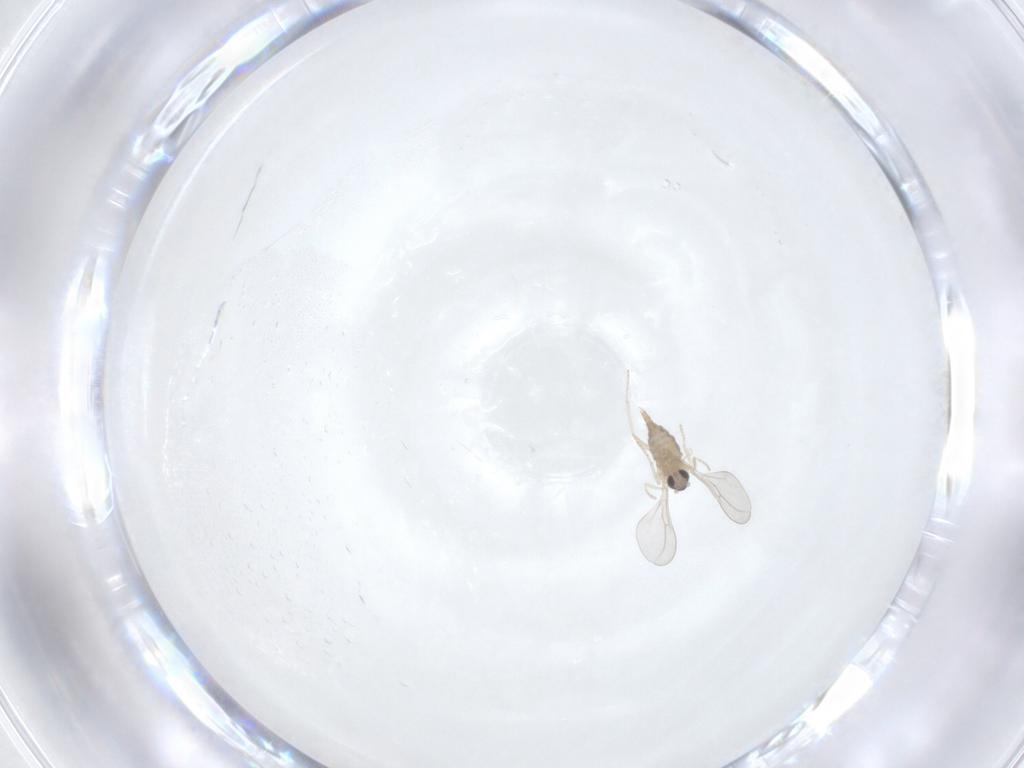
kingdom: Animalia
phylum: Arthropoda
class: Insecta
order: Diptera
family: Cecidomyiidae
